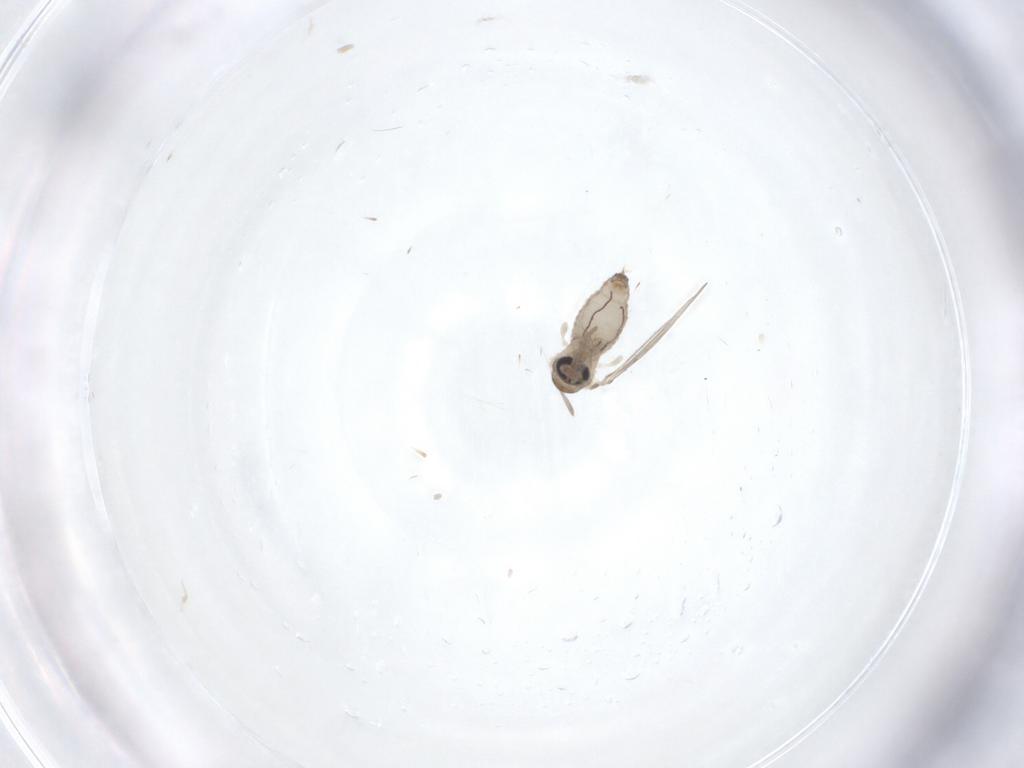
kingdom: Animalia
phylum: Arthropoda
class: Insecta
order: Diptera
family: Psychodidae
